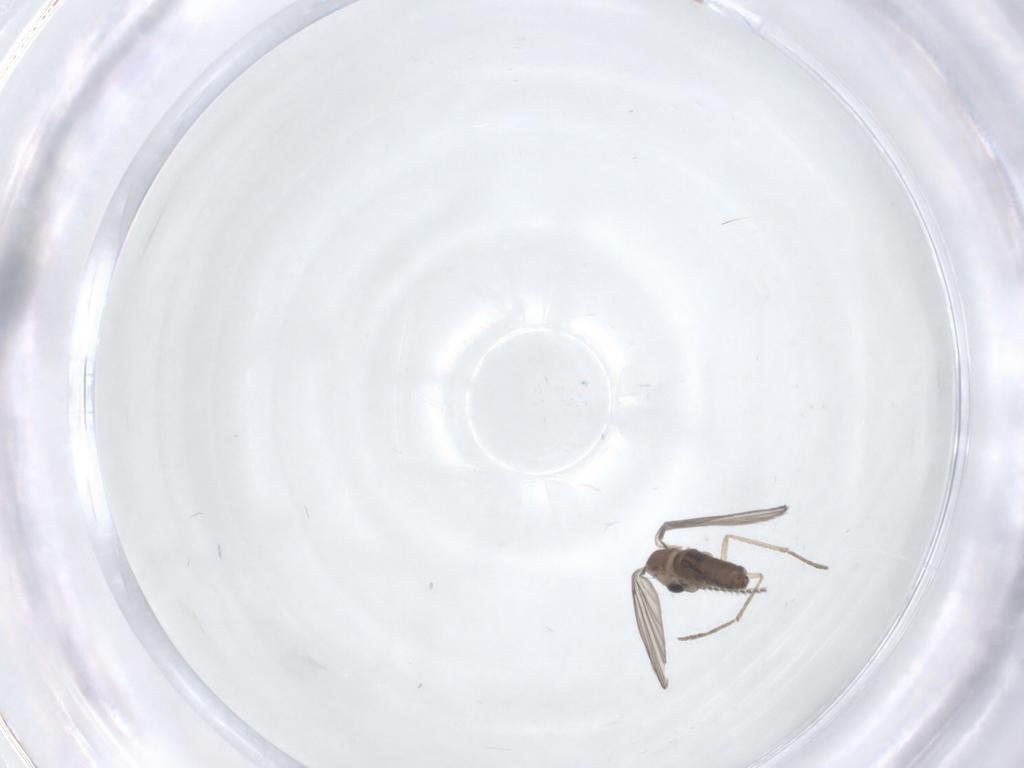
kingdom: Animalia
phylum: Arthropoda
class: Insecta
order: Diptera
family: Psychodidae
